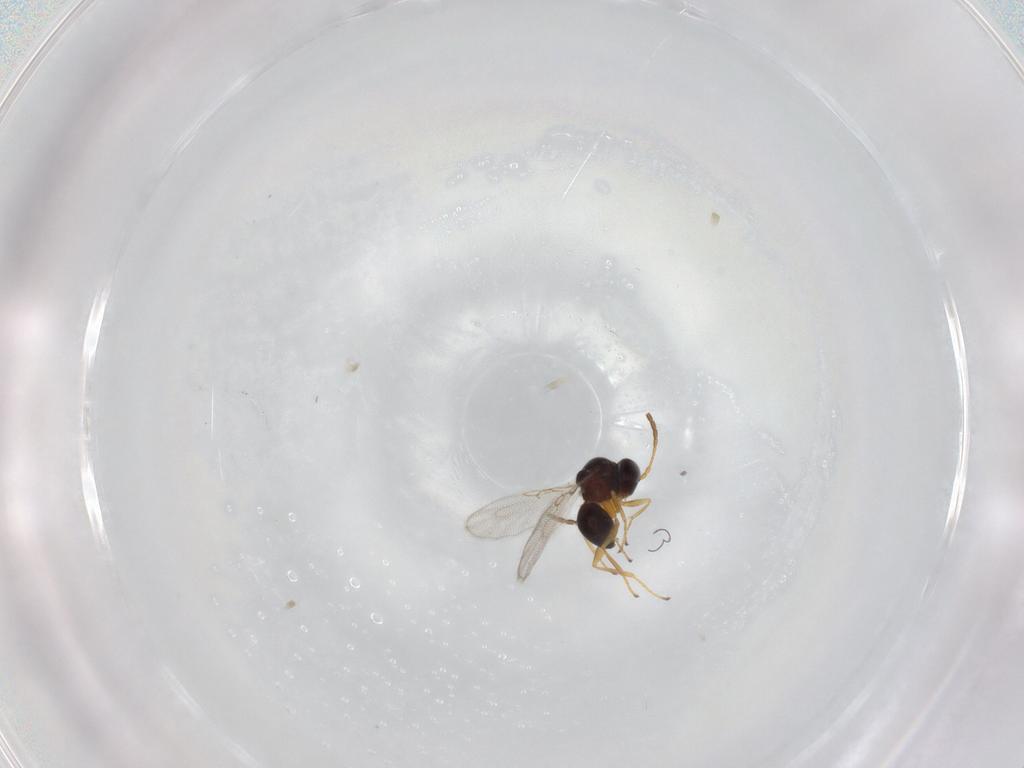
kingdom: Animalia
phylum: Arthropoda
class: Insecta
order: Hymenoptera
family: Figitidae
